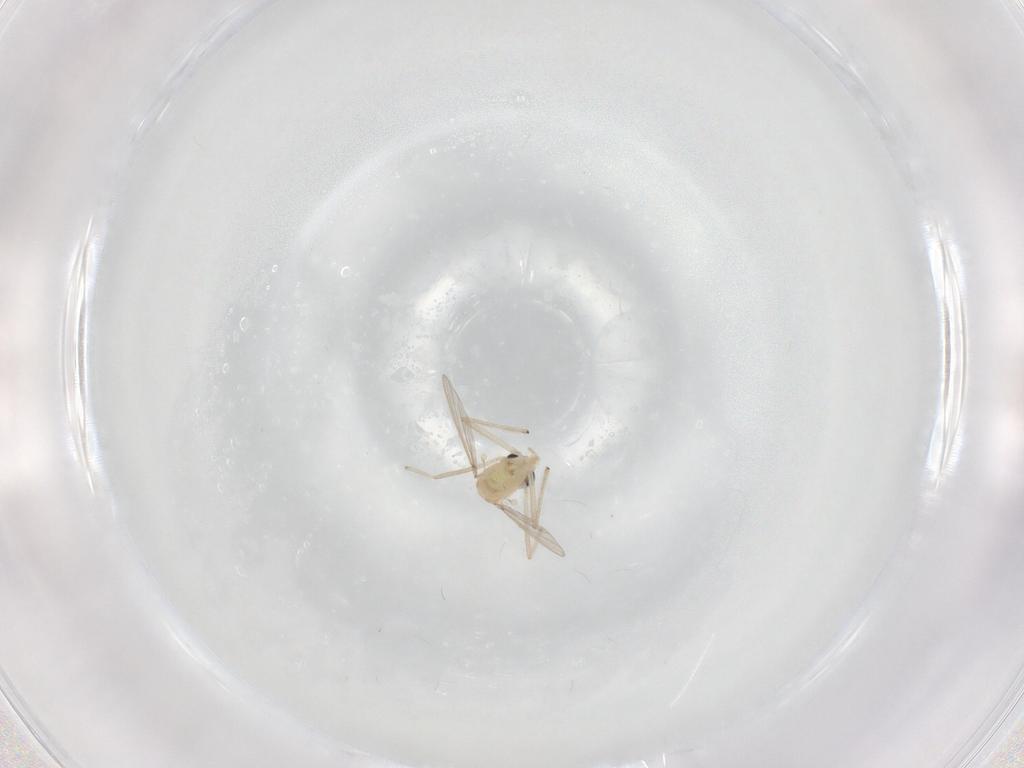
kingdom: Animalia
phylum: Arthropoda
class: Insecta
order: Diptera
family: Chironomidae
